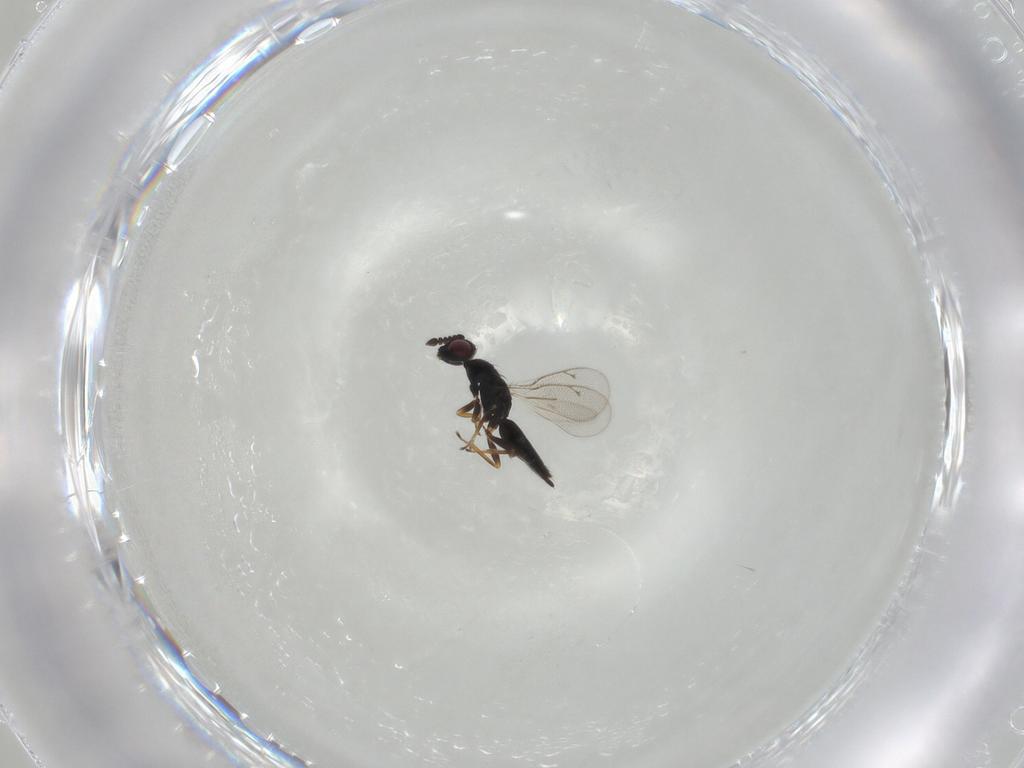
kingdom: Animalia
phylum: Arthropoda
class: Insecta
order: Hymenoptera
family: Eulophidae
